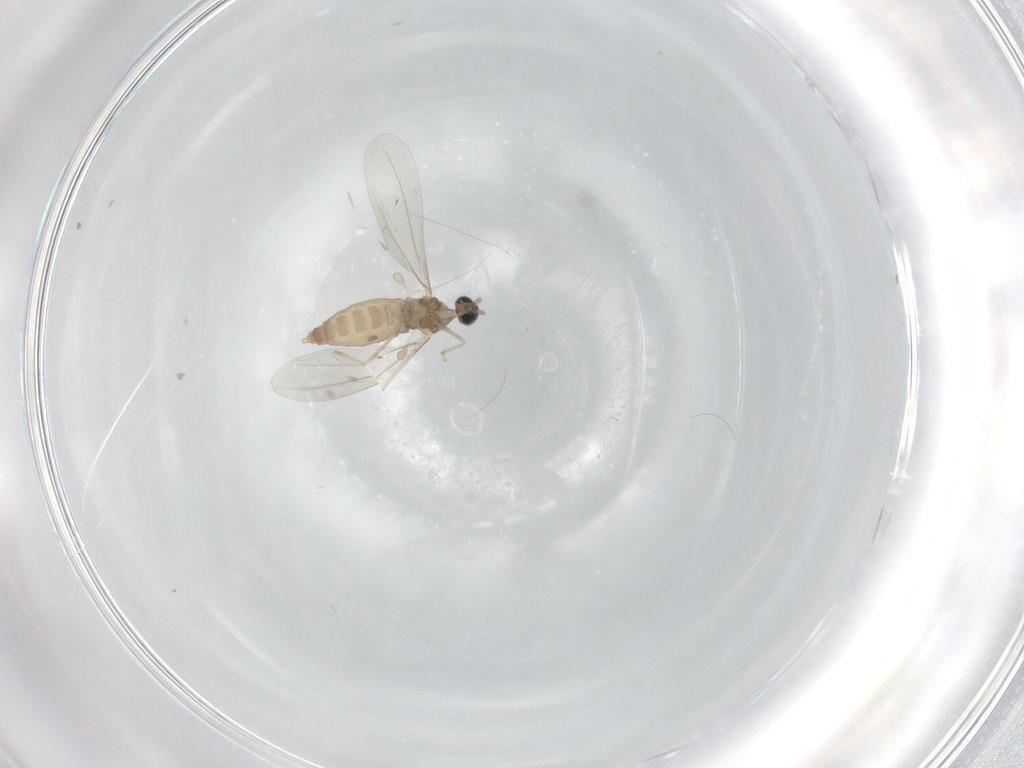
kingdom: Animalia
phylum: Arthropoda
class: Insecta
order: Diptera
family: Cecidomyiidae
